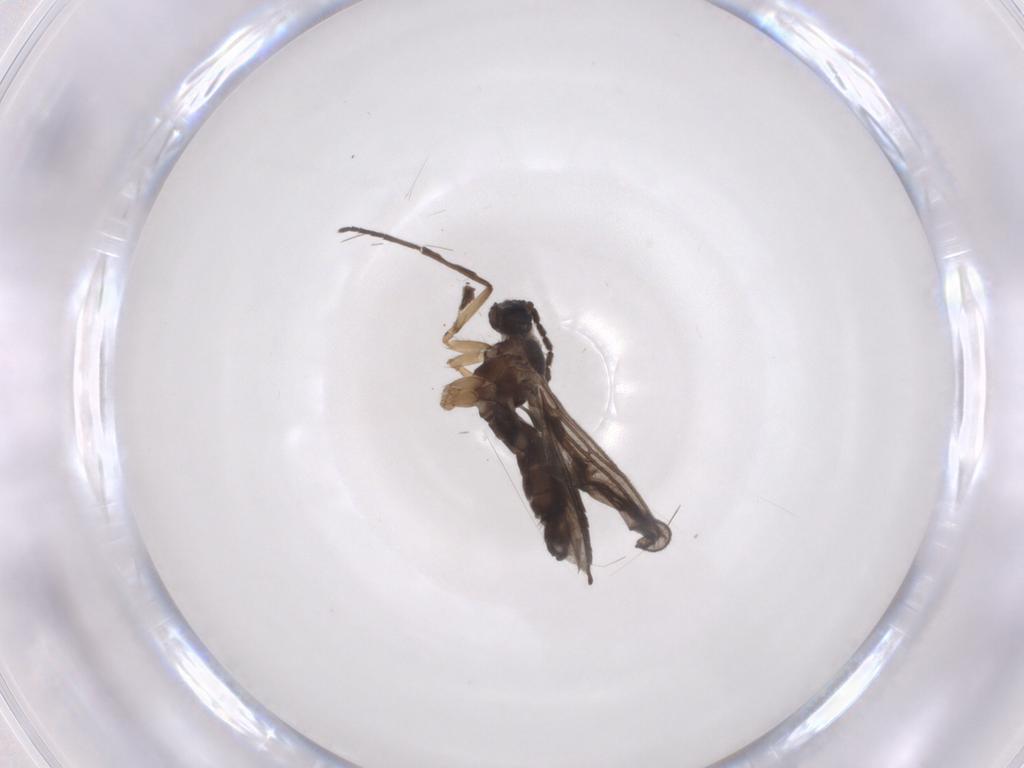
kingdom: Animalia
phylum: Arthropoda
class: Insecta
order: Diptera
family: Sciaridae
